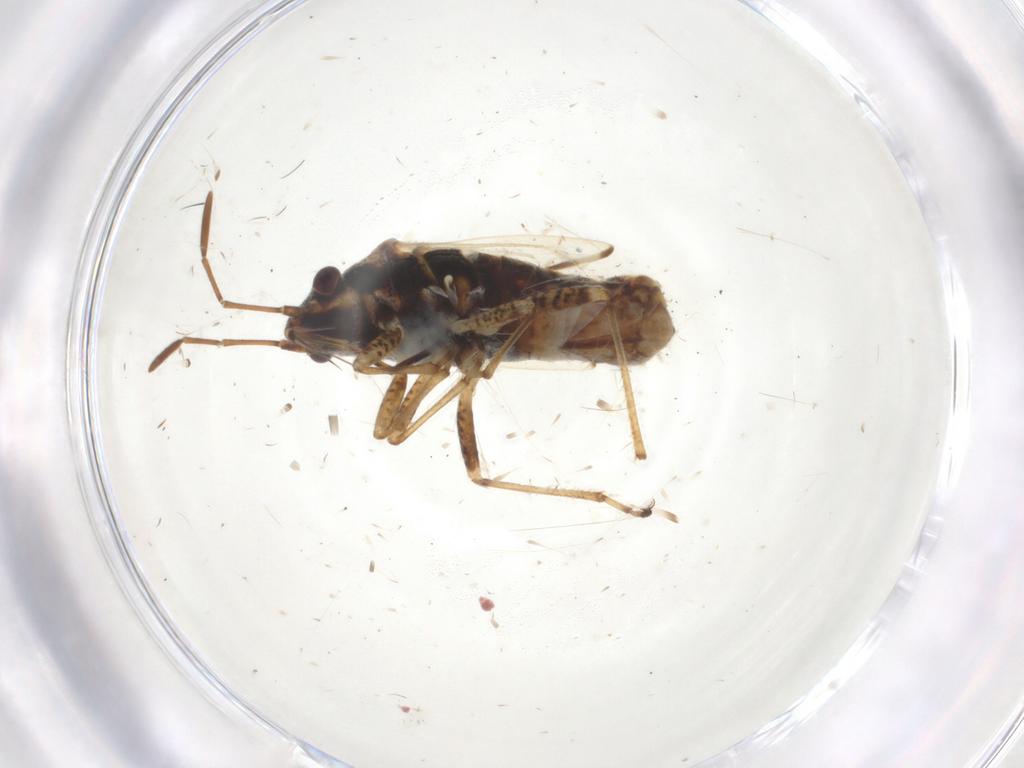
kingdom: Animalia
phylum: Arthropoda
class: Insecta
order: Hemiptera
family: Lygaeidae
